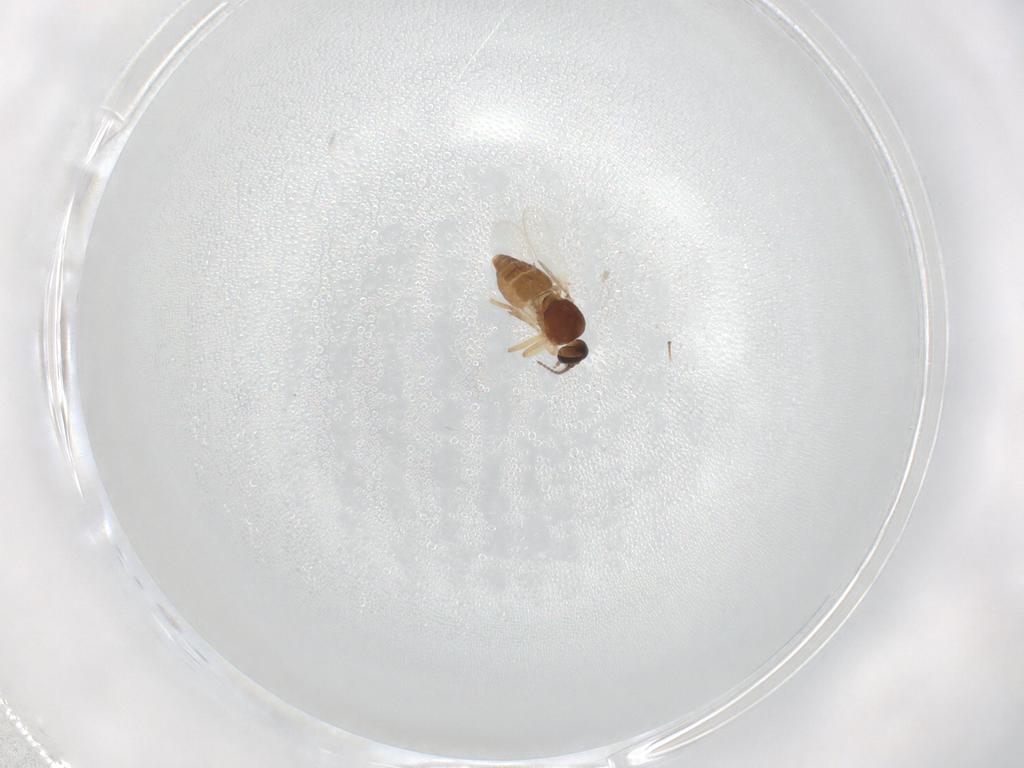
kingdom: Animalia
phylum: Arthropoda
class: Insecta
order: Diptera
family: Ceratopogonidae
